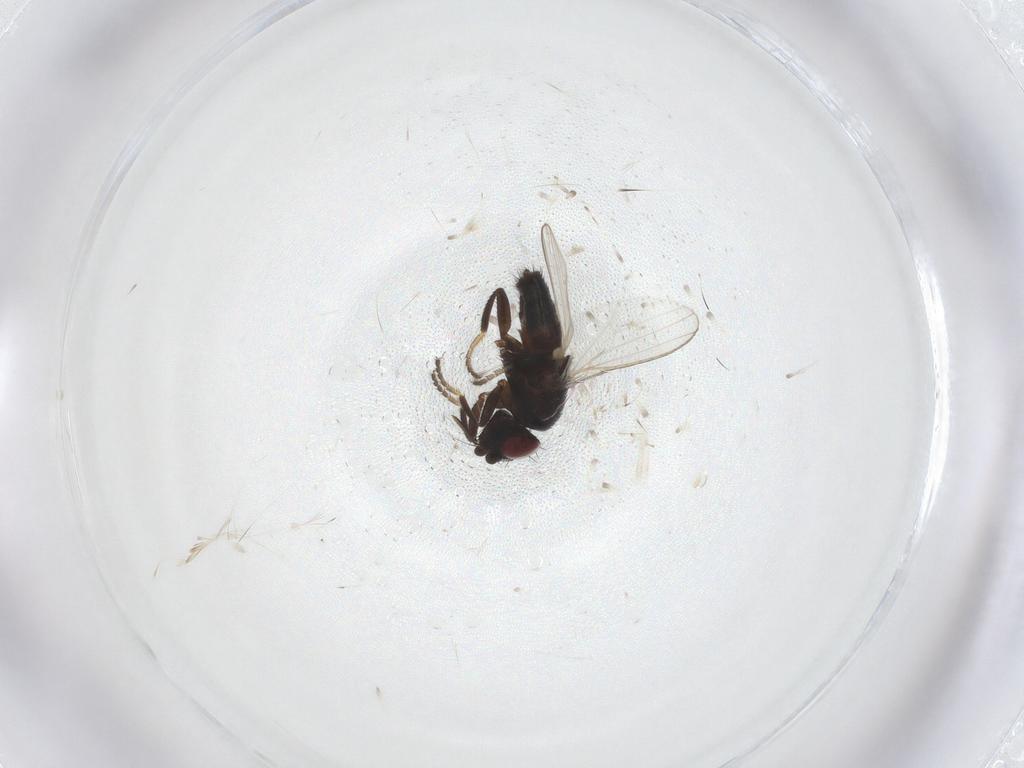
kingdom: Animalia
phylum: Arthropoda
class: Insecta
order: Diptera
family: Milichiidae
